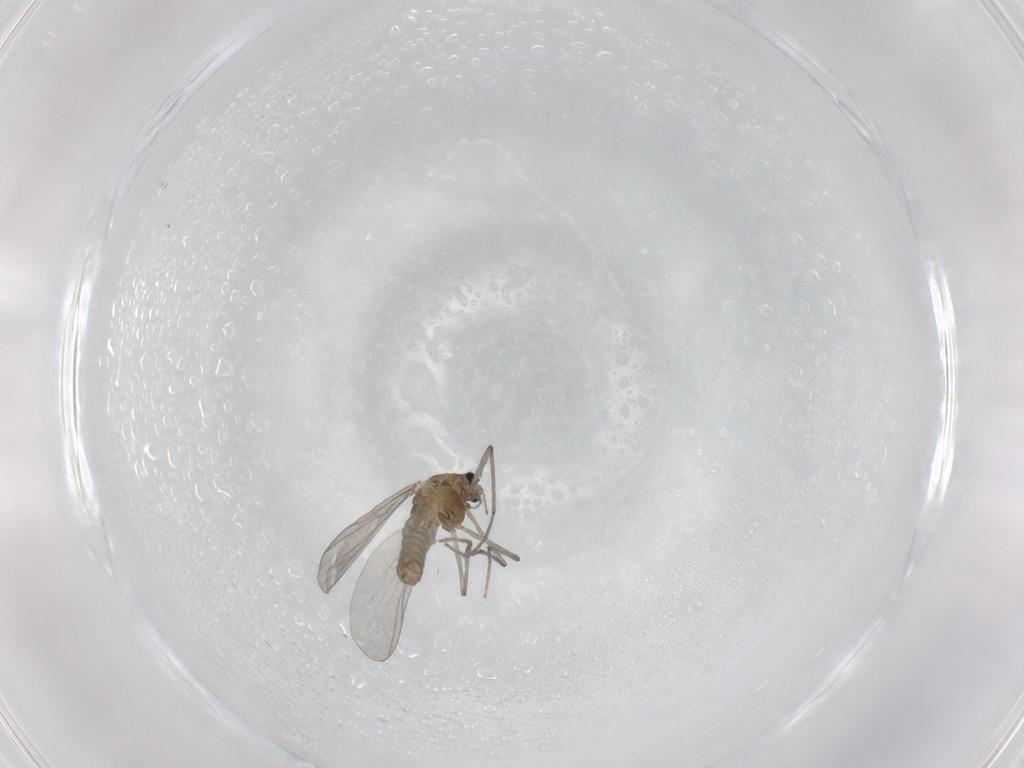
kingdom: Animalia
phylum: Arthropoda
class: Insecta
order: Diptera
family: Chironomidae
